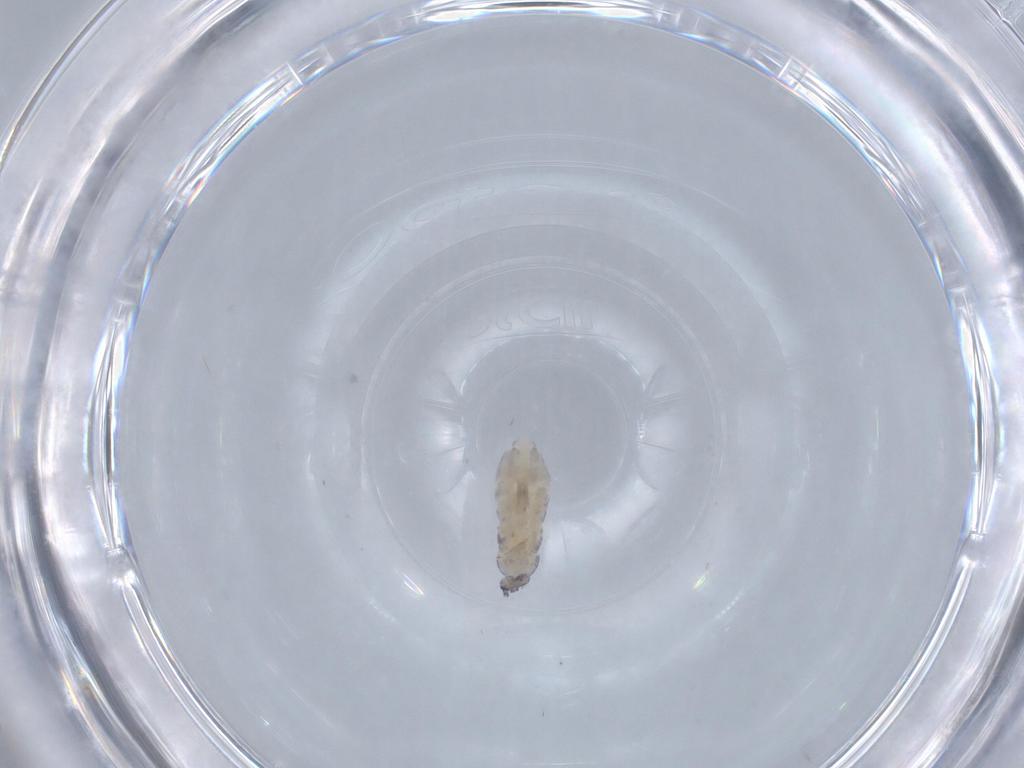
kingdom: Animalia
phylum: Arthropoda
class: Collembola
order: Entomobryomorpha
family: Entomobryidae
